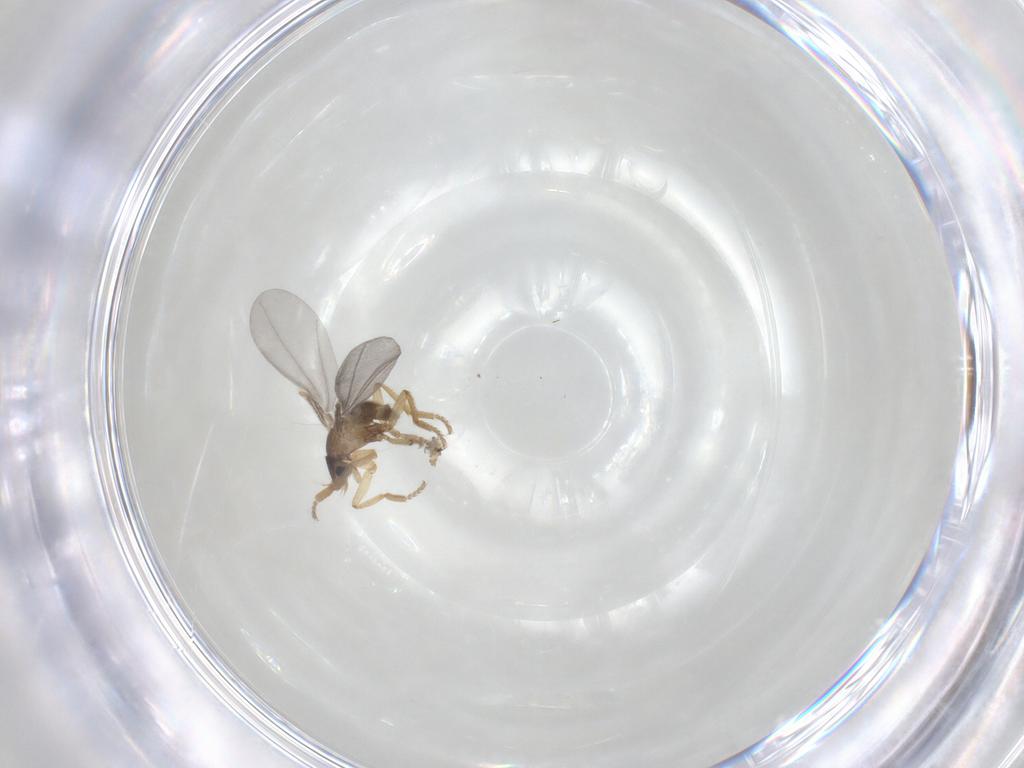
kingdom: Animalia
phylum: Arthropoda
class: Insecta
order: Diptera
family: Phoridae
